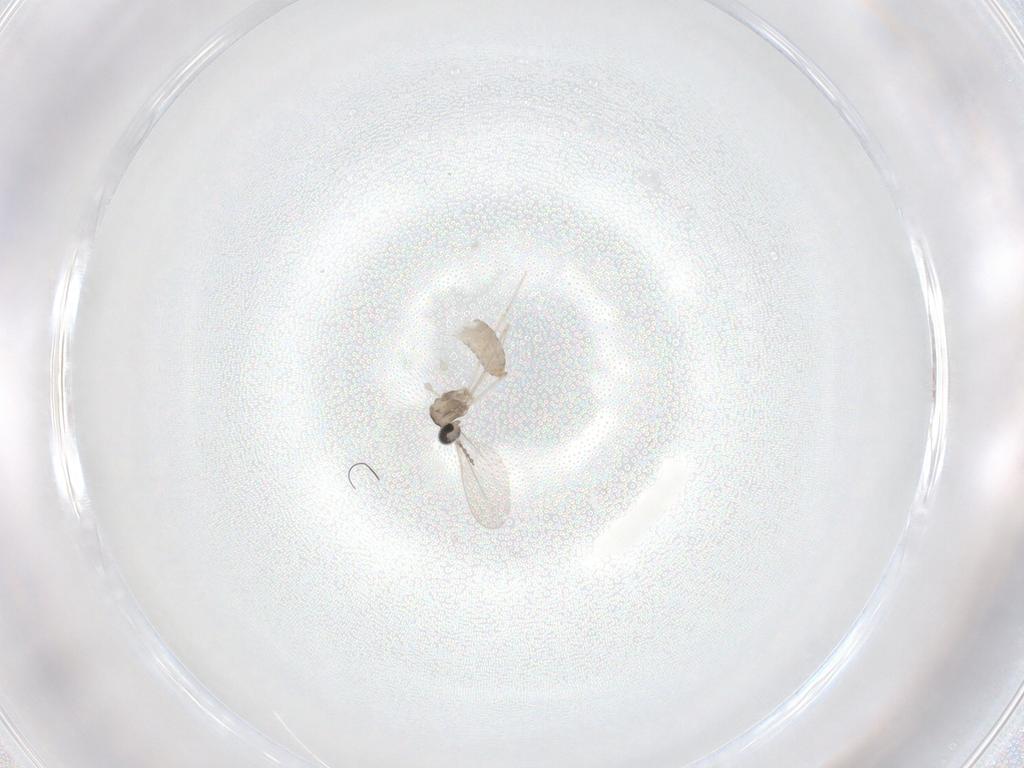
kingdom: Animalia
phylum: Arthropoda
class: Insecta
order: Diptera
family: Phoridae
